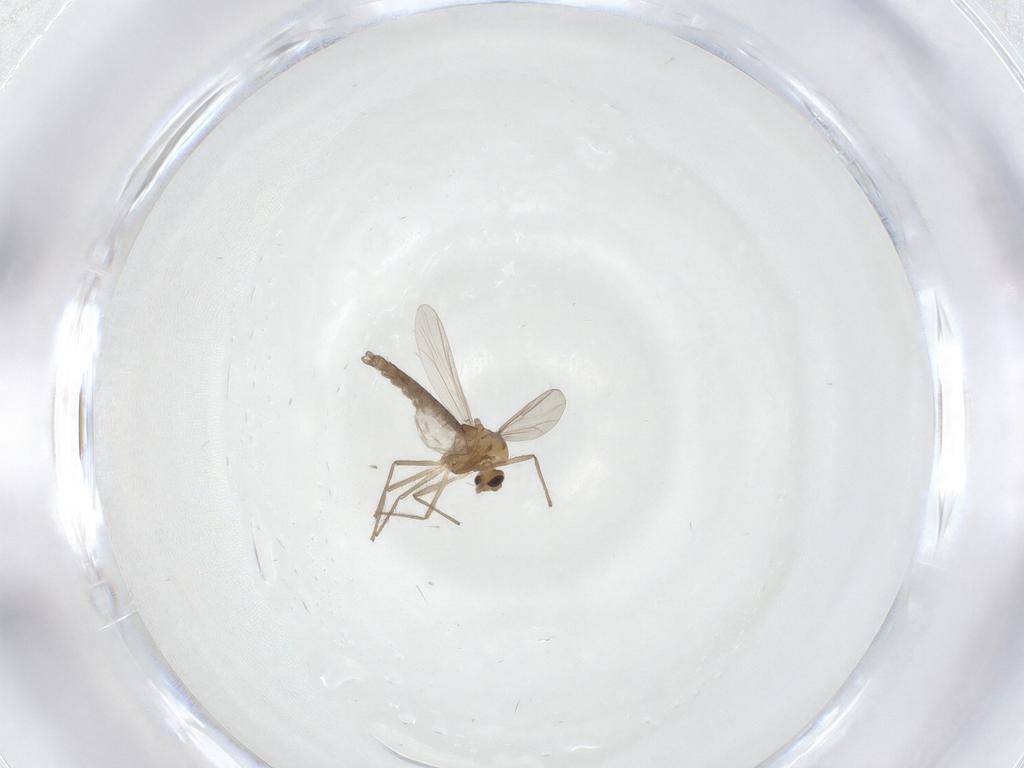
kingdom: Animalia
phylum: Arthropoda
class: Insecta
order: Diptera
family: Chironomidae
